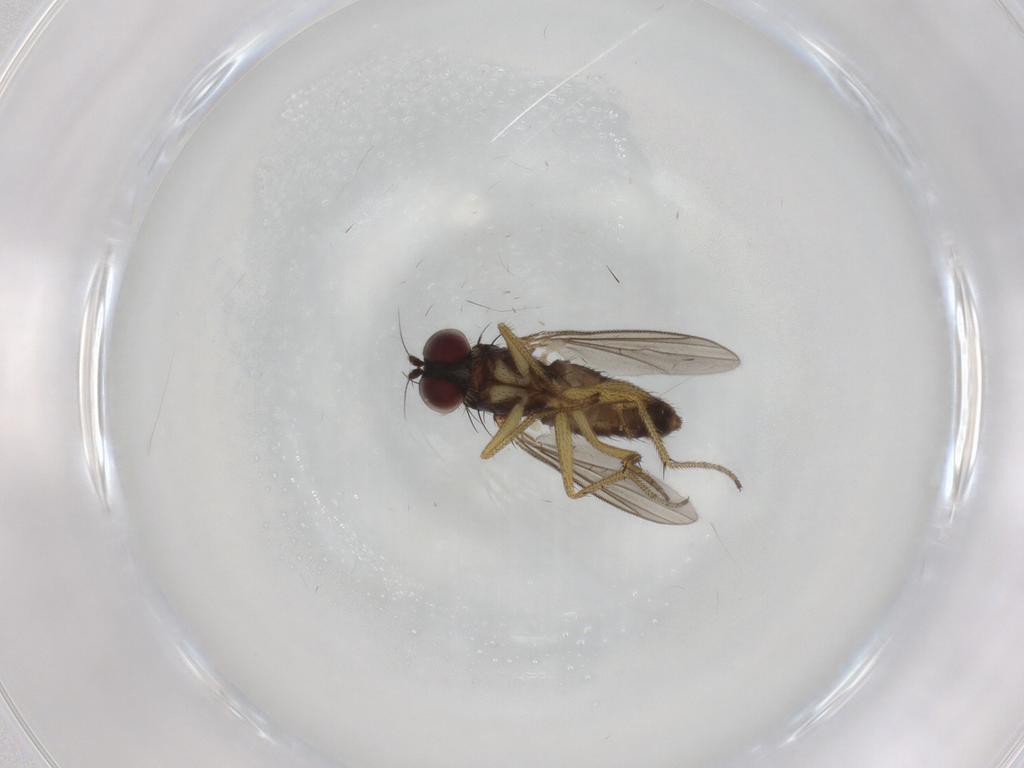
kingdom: Animalia
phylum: Arthropoda
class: Insecta
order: Diptera
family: Dolichopodidae
